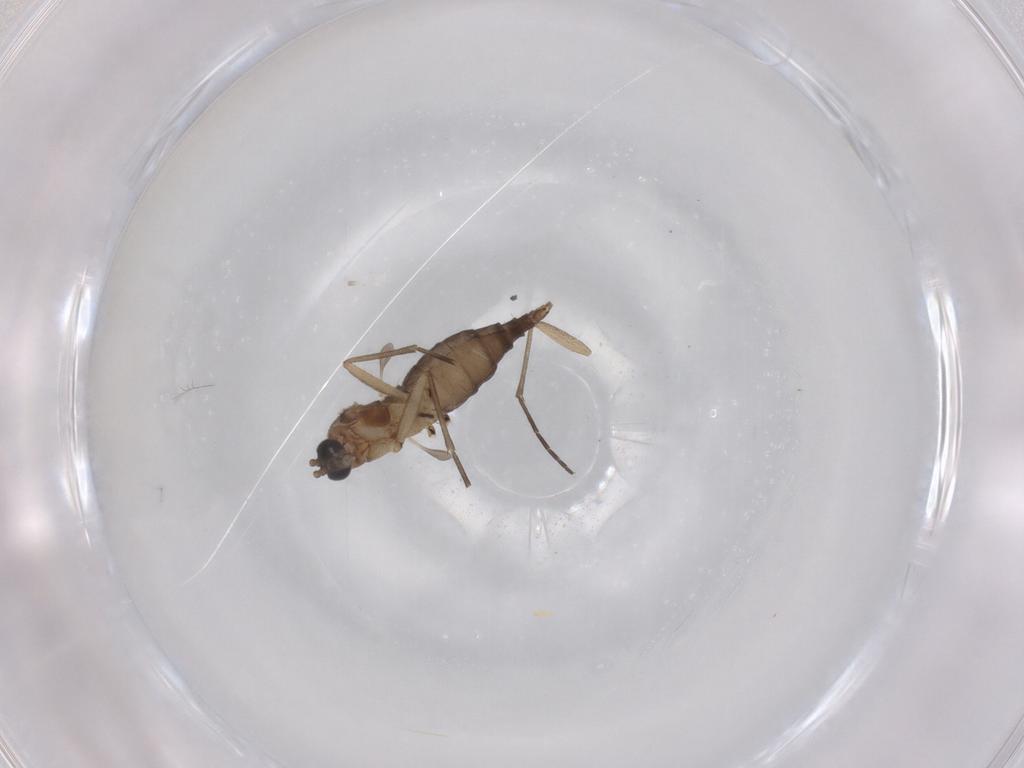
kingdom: Animalia
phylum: Arthropoda
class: Insecta
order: Diptera
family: Sciaridae
